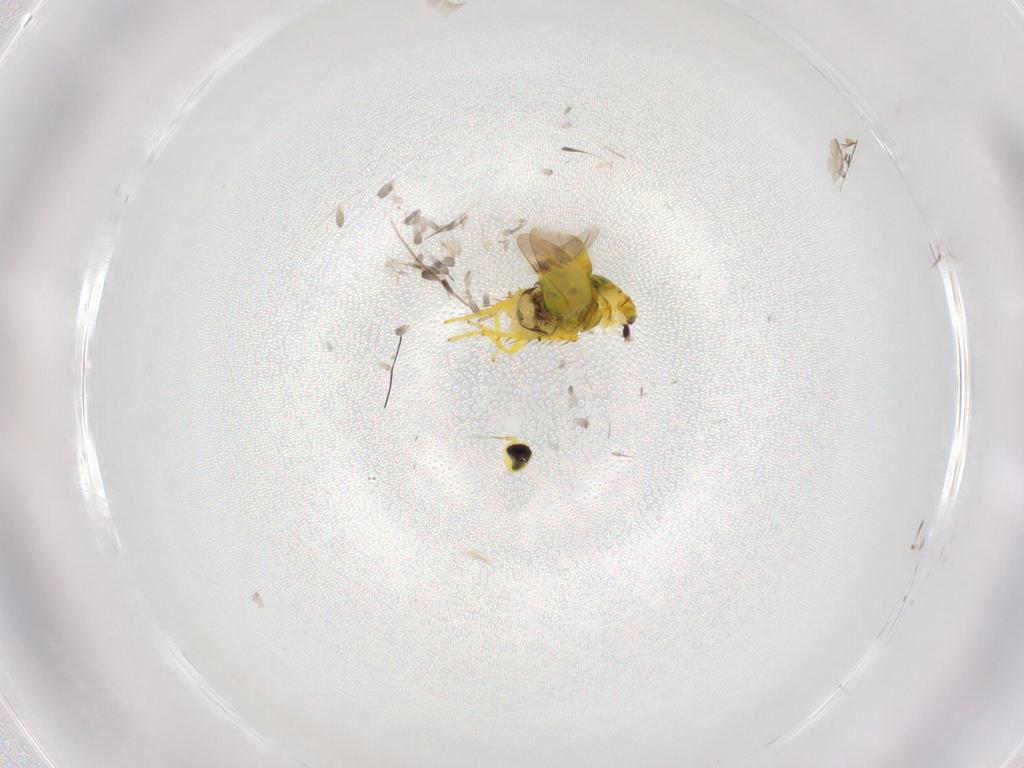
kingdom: Animalia
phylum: Arthropoda
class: Insecta
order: Hemiptera
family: Cicadellidae
